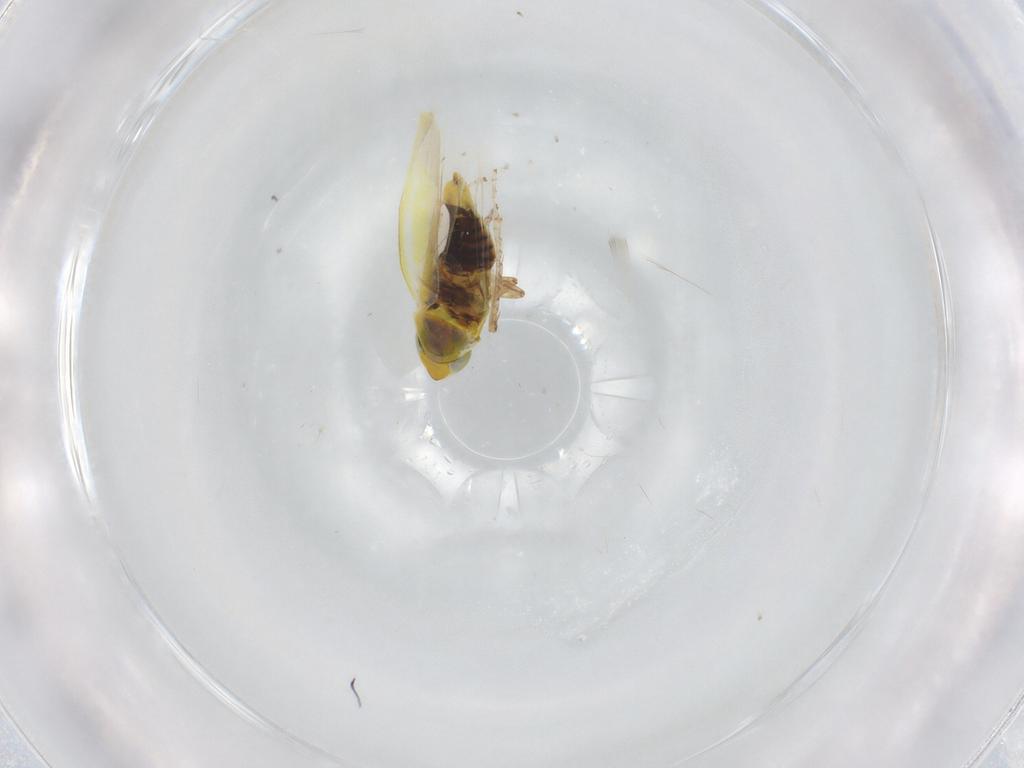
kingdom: Animalia
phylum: Arthropoda
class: Insecta
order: Hemiptera
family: Cicadellidae
